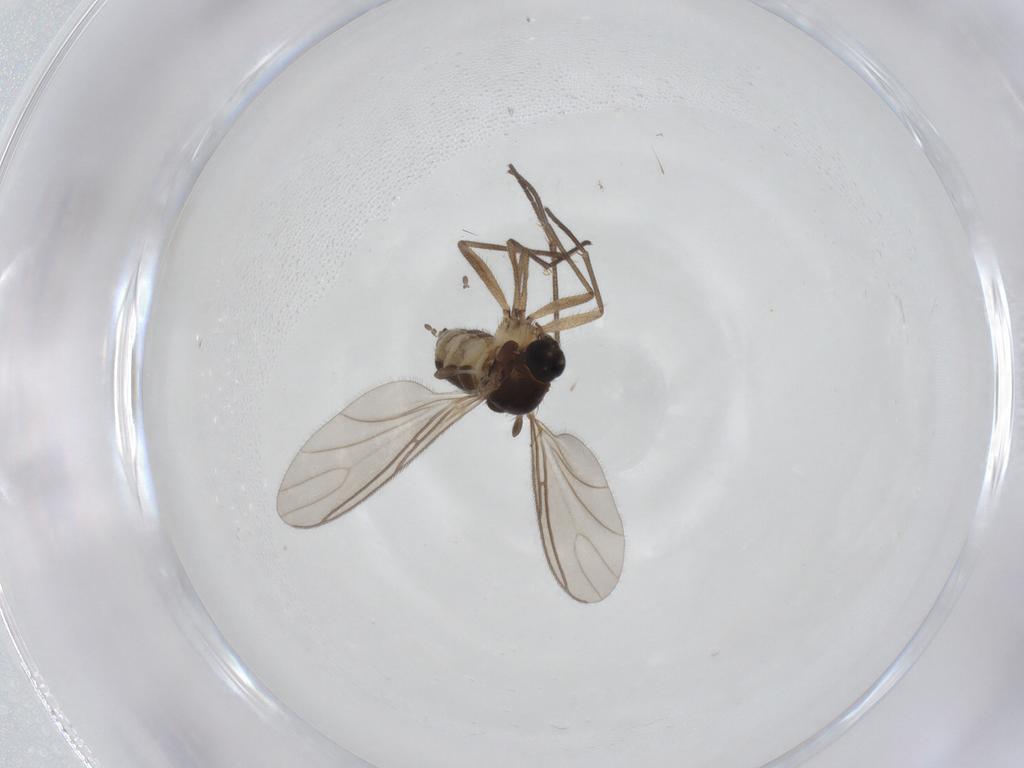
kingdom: Animalia
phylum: Arthropoda
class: Insecta
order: Diptera
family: Sciaridae
